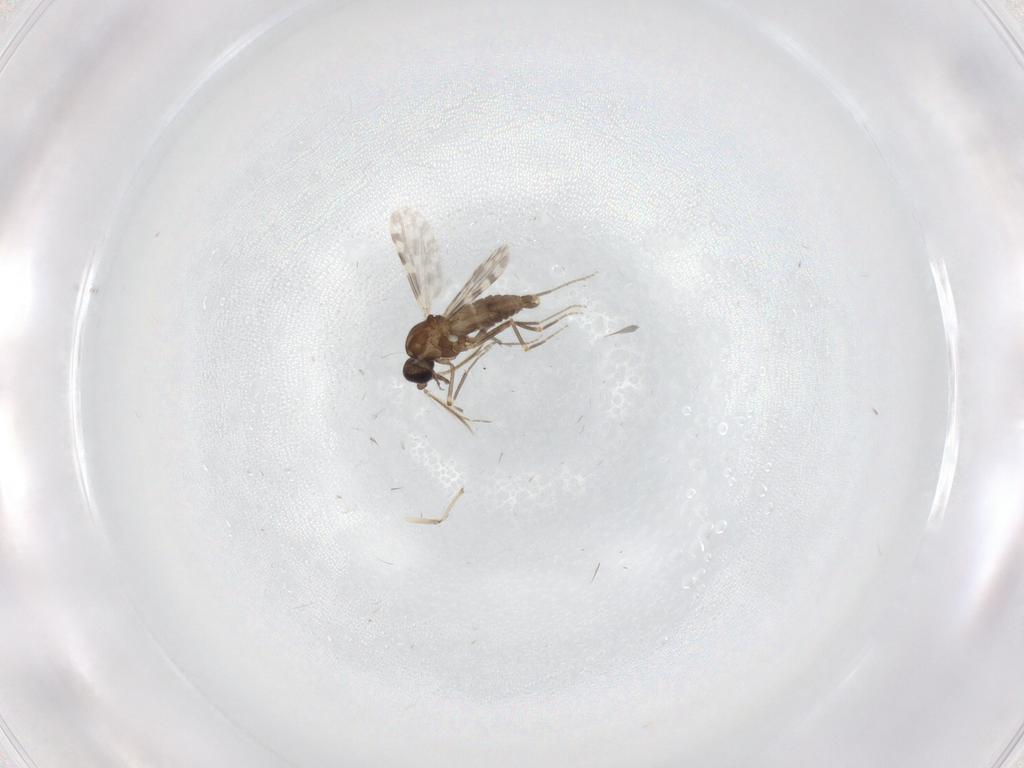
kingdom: Animalia
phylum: Arthropoda
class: Insecta
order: Diptera
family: Ceratopogonidae
